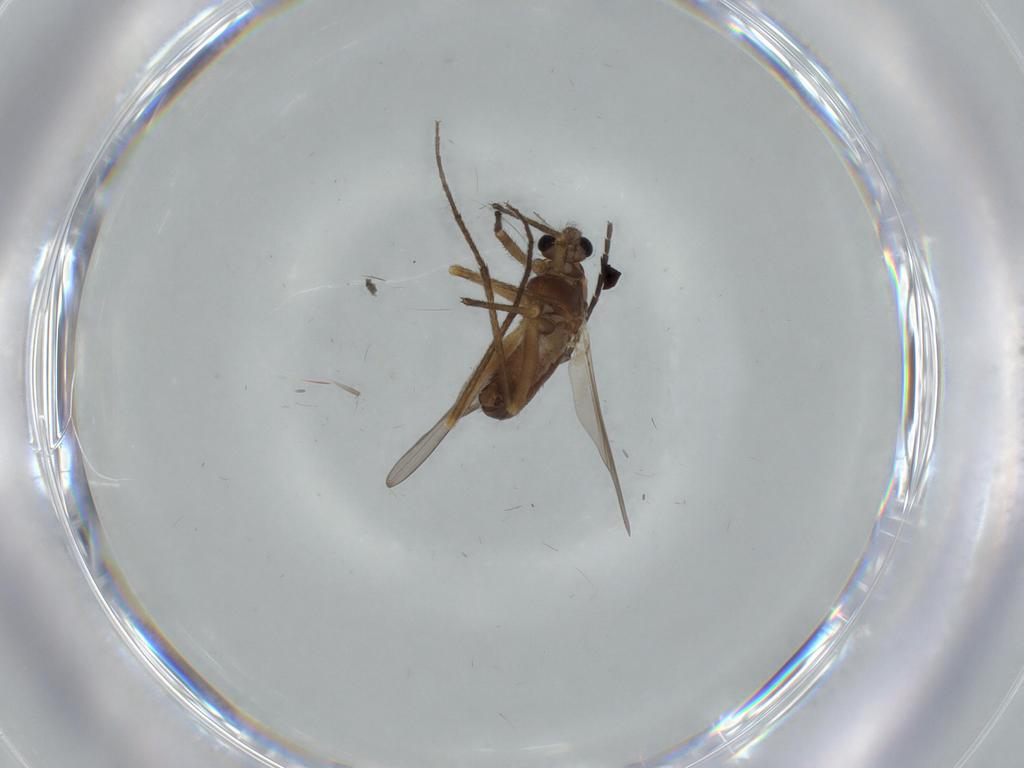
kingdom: Animalia
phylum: Arthropoda
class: Insecta
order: Diptera
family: Chironomidae
